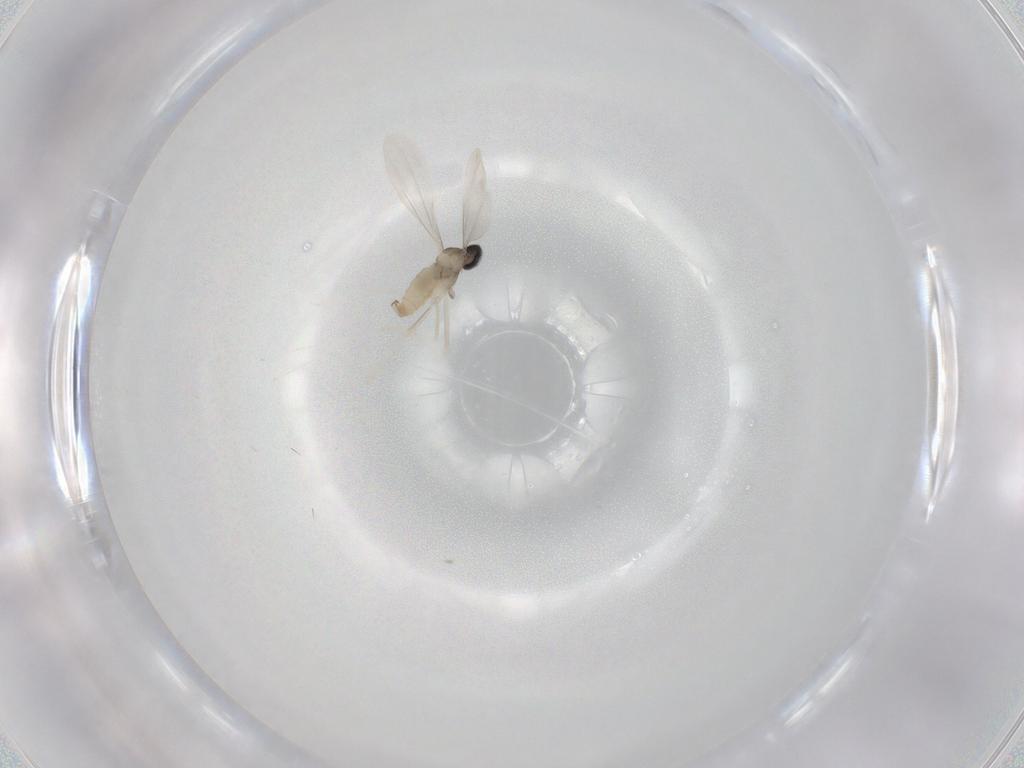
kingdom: Animalia
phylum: Arthropoda
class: Insecta
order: Diptera
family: Cecidomyiidae
